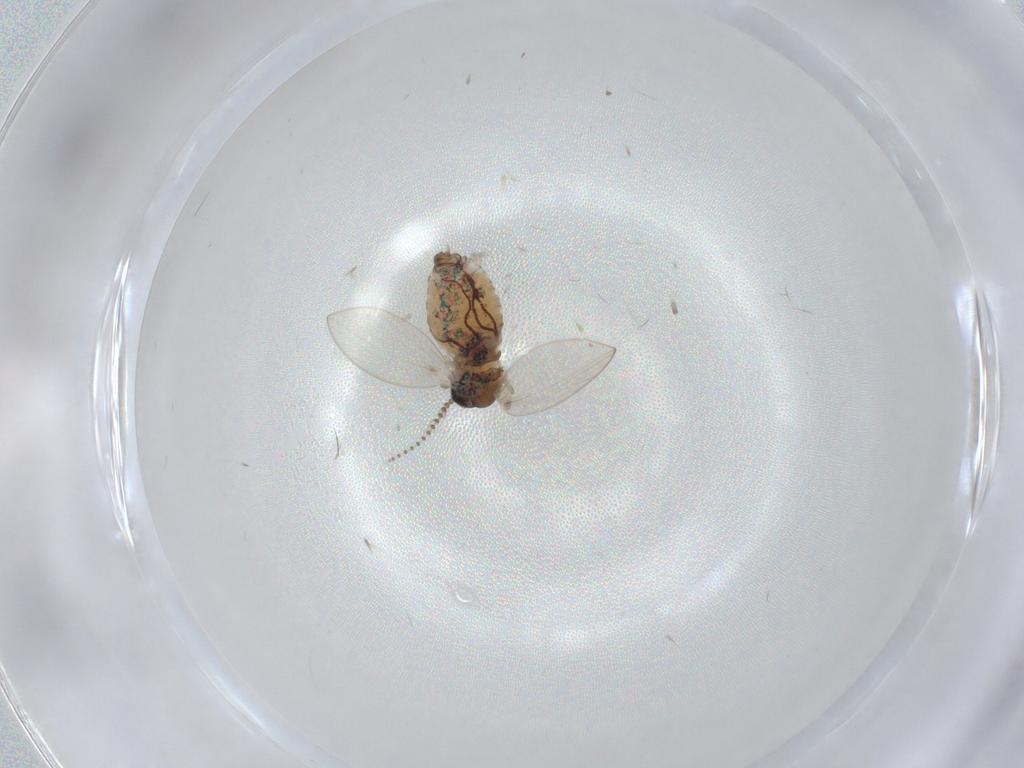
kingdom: Animalia
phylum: Arthropoda
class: Insecta
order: Diptera
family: Psychodidae
